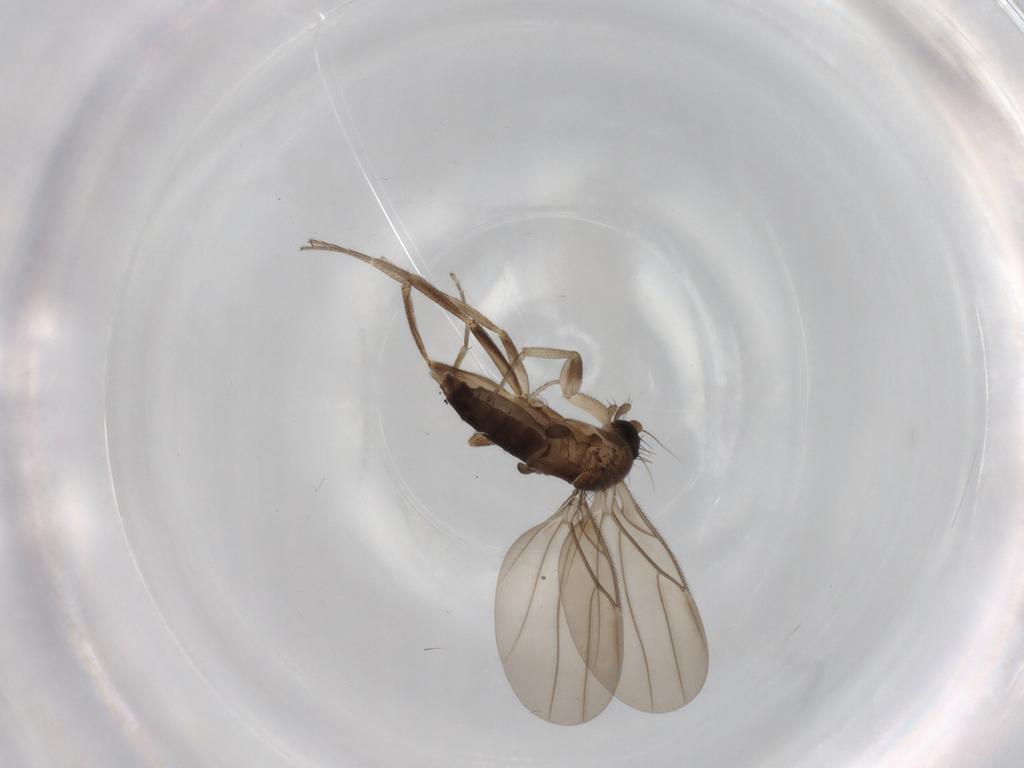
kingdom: Animalia
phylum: Arthropoda
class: Insecta
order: Diptera
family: Phoridae
